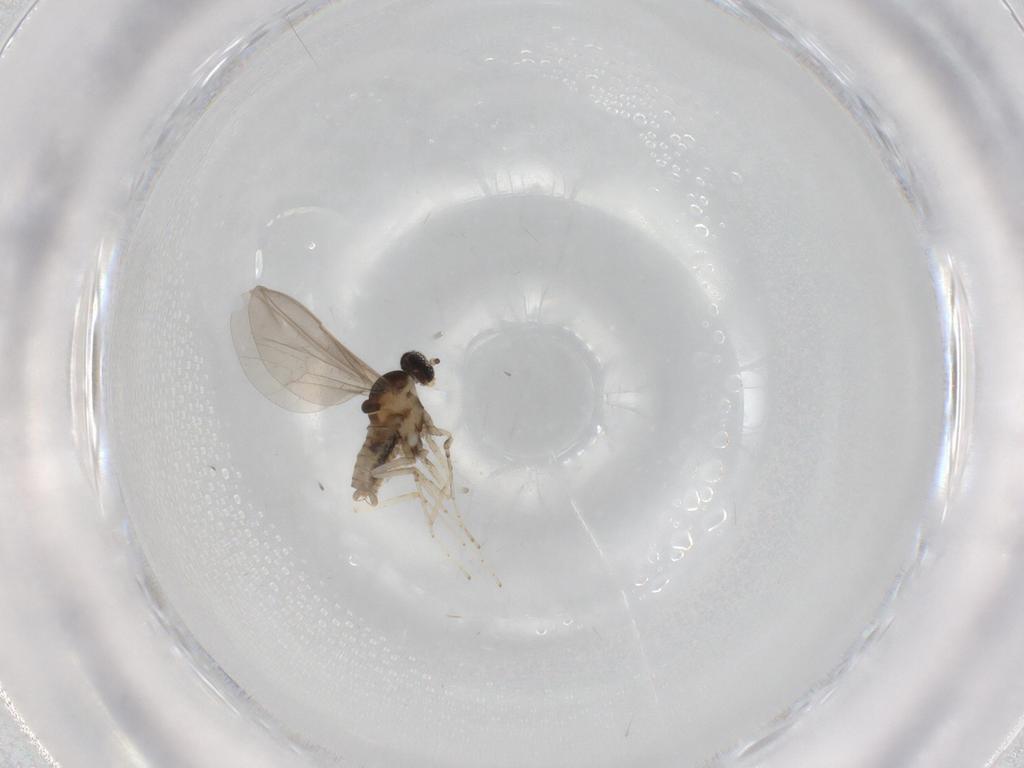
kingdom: Animalia
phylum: Arthropoda
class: Insecta
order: Diptera
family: Cecidomyiidae
